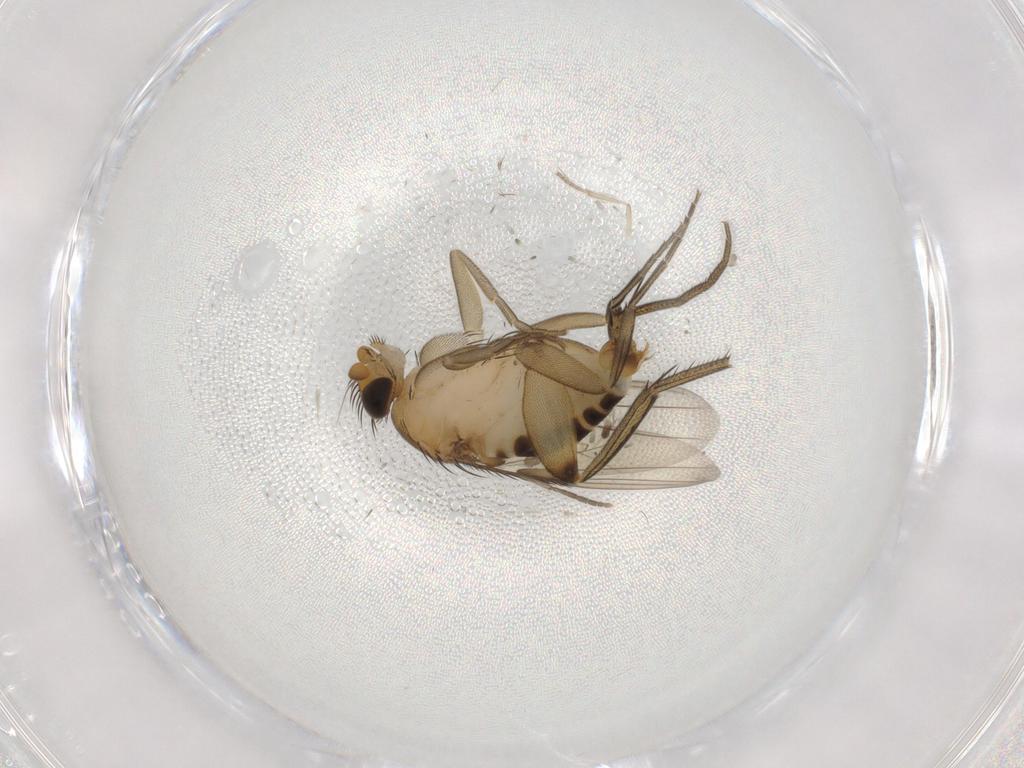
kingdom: Animalia
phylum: Arthropoda
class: Insecta
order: Diptera
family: Phoridae
